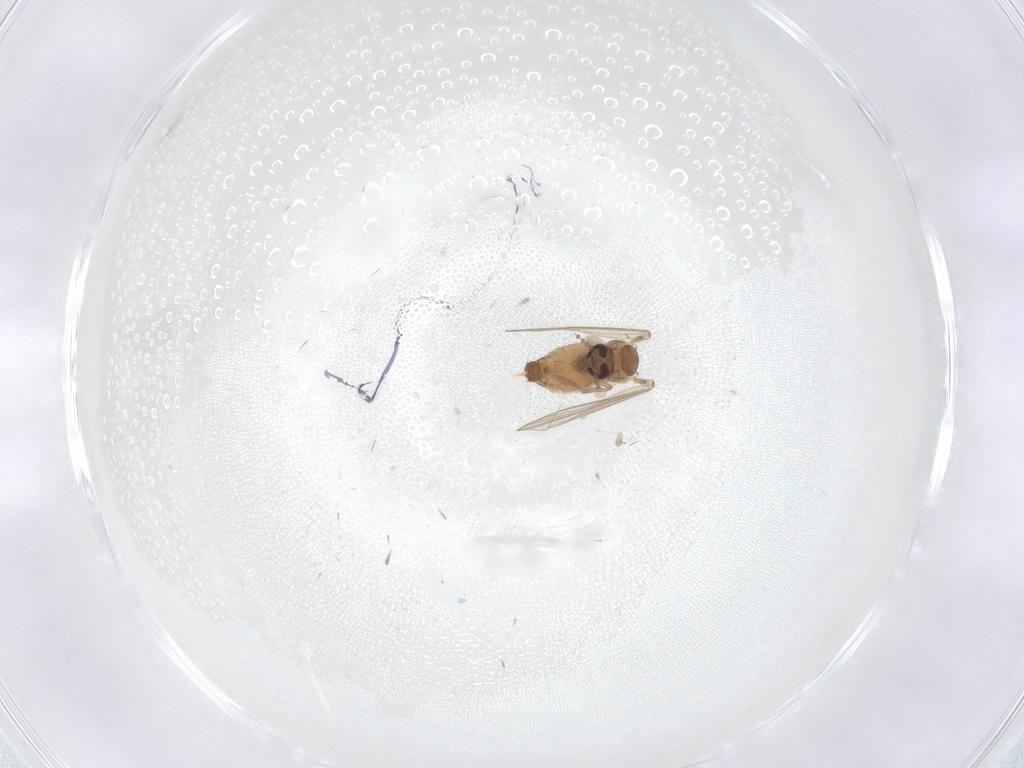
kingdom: Animalia
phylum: Arthropoda
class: Insecta
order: Diptera
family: Psychodidae
